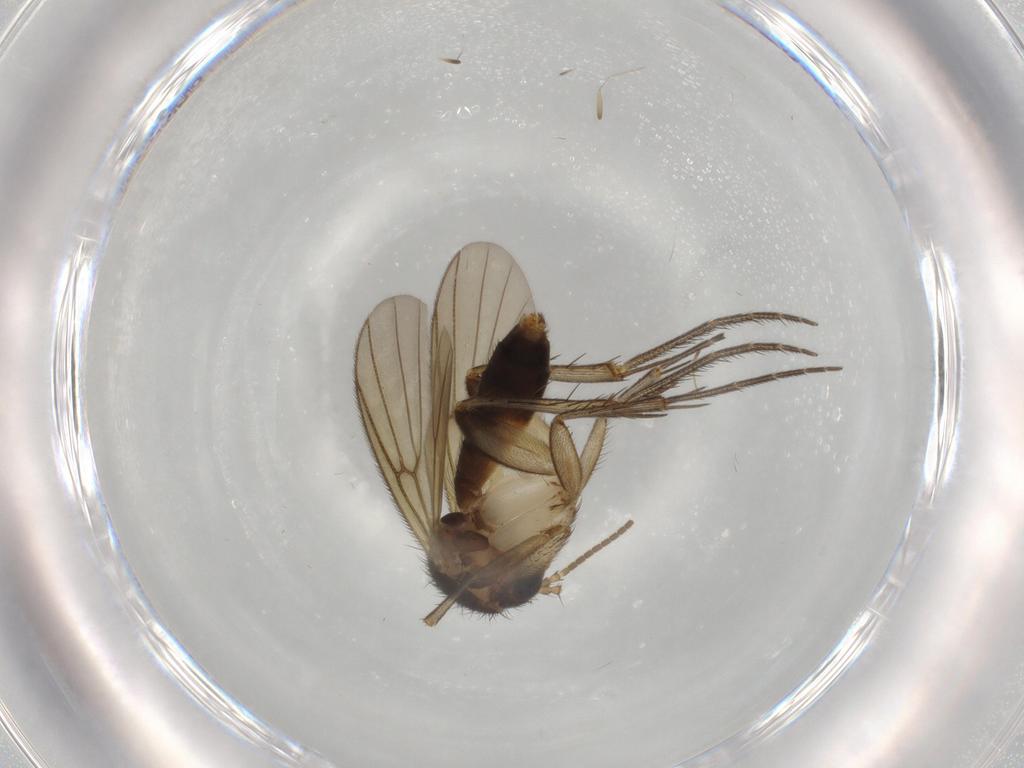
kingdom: Animalia
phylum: Arthropoda
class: Insecta
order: Diptera
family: Mycetophilidae
